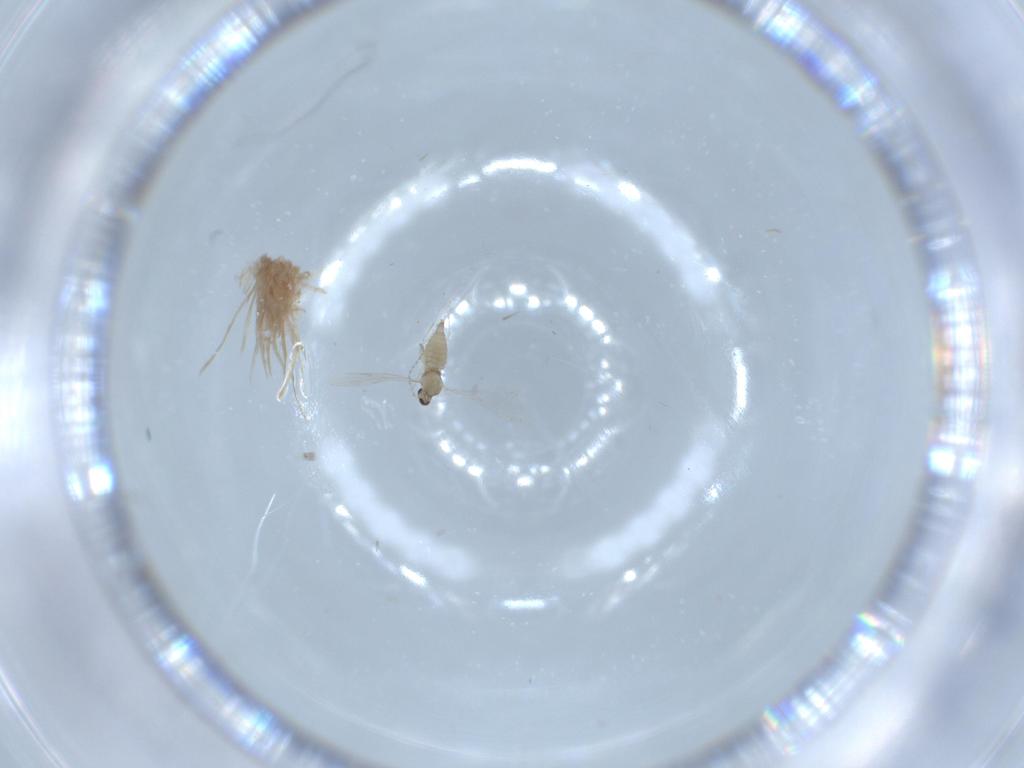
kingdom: Animalia
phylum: Arthropoda
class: Insecta
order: Diptera
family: Cecidomyiidae
